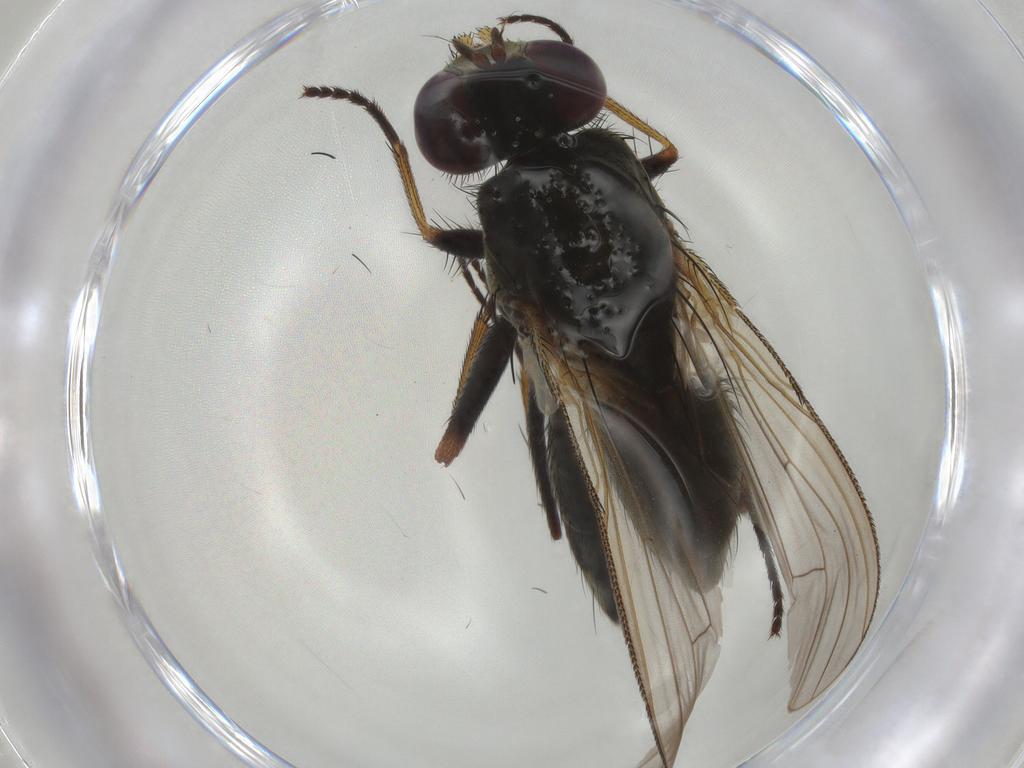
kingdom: Animalia
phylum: Arthropoda
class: Insecta
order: Diptera
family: Muscidae
